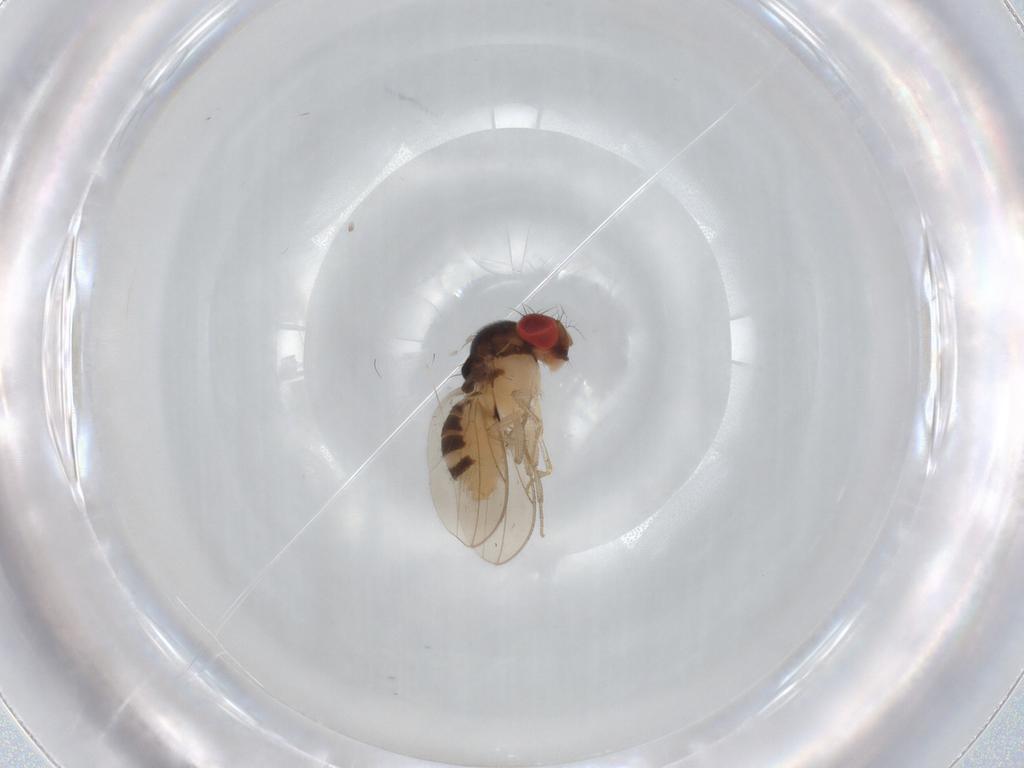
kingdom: Animalia
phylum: Arthropoda
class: Insecta
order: Diptera
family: Drosophilidae
